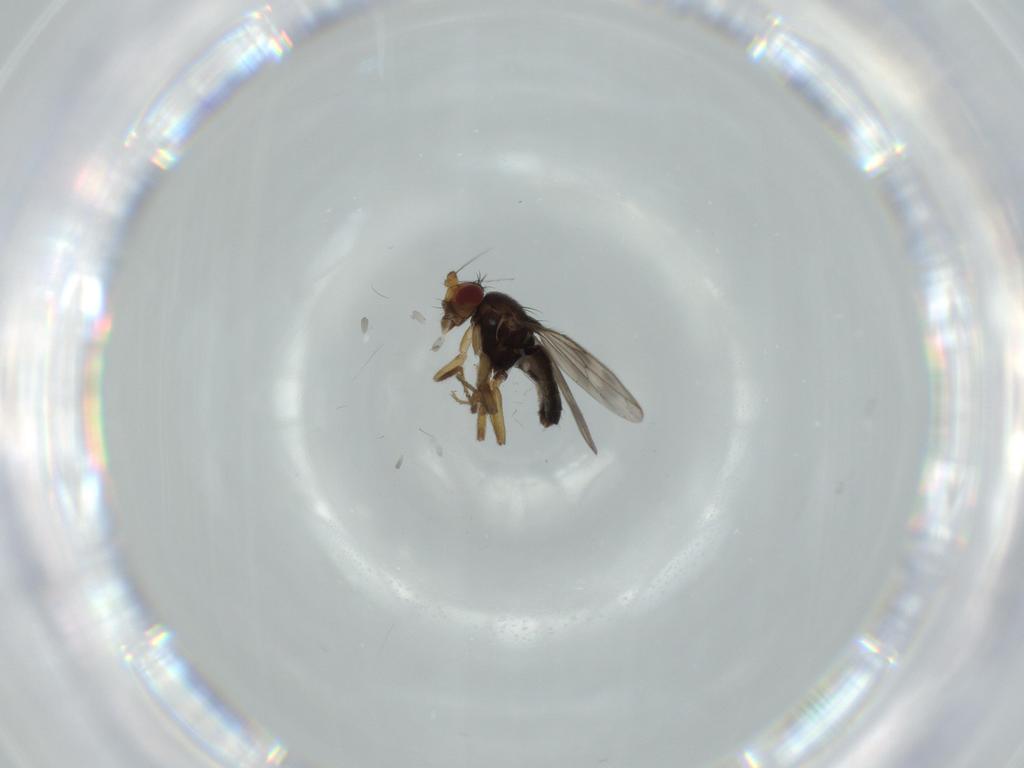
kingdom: Animalia
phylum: Arthropoda
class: Insecta
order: Diptera
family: Sphaeroceridae
